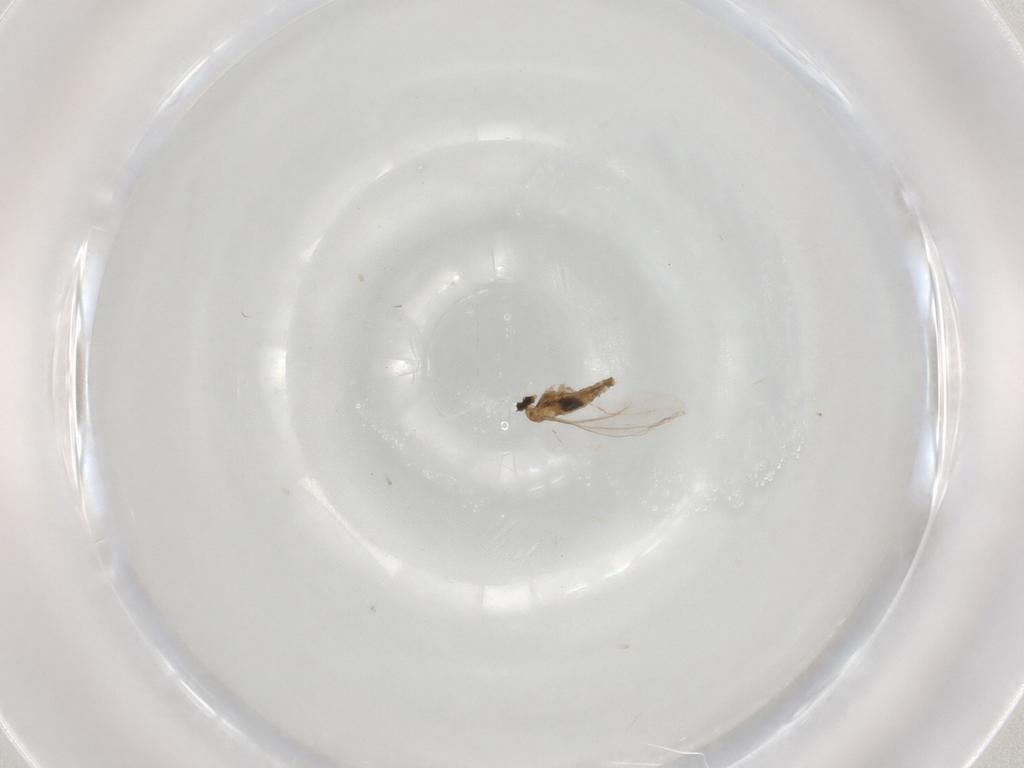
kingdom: Animalia
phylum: Arthropoda
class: Insecta
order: Diptera
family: Cecidomyiidae
